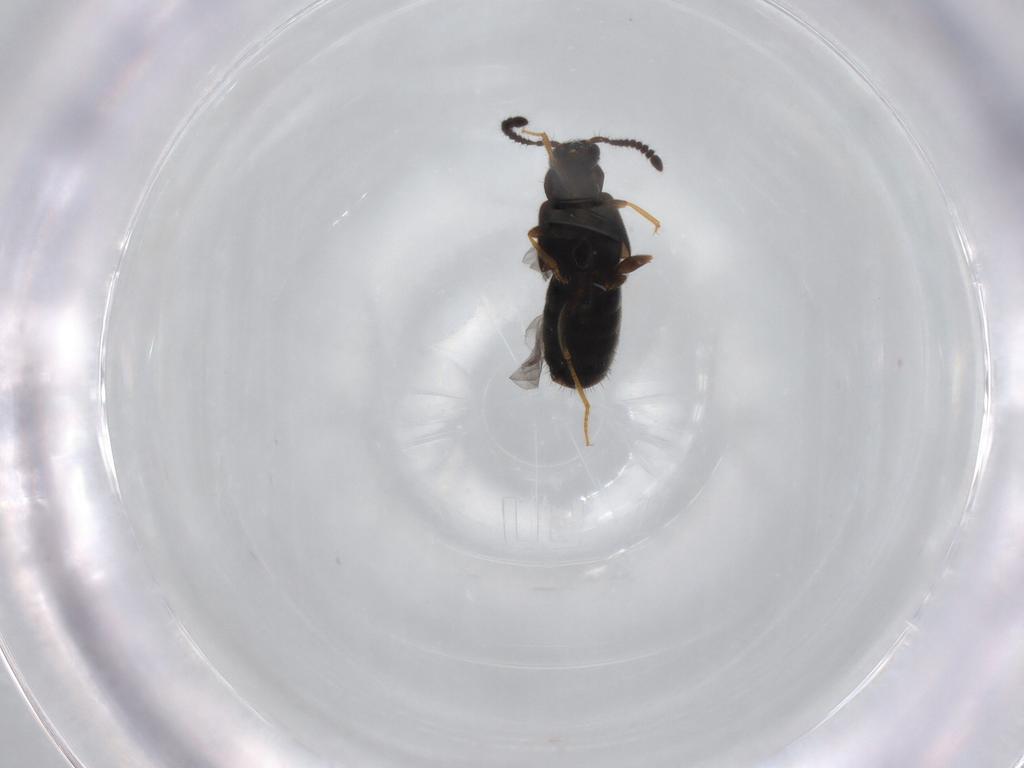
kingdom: Animalia
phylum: Arthropoda
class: Insecta
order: Coleoptera
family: Staphylinidae
